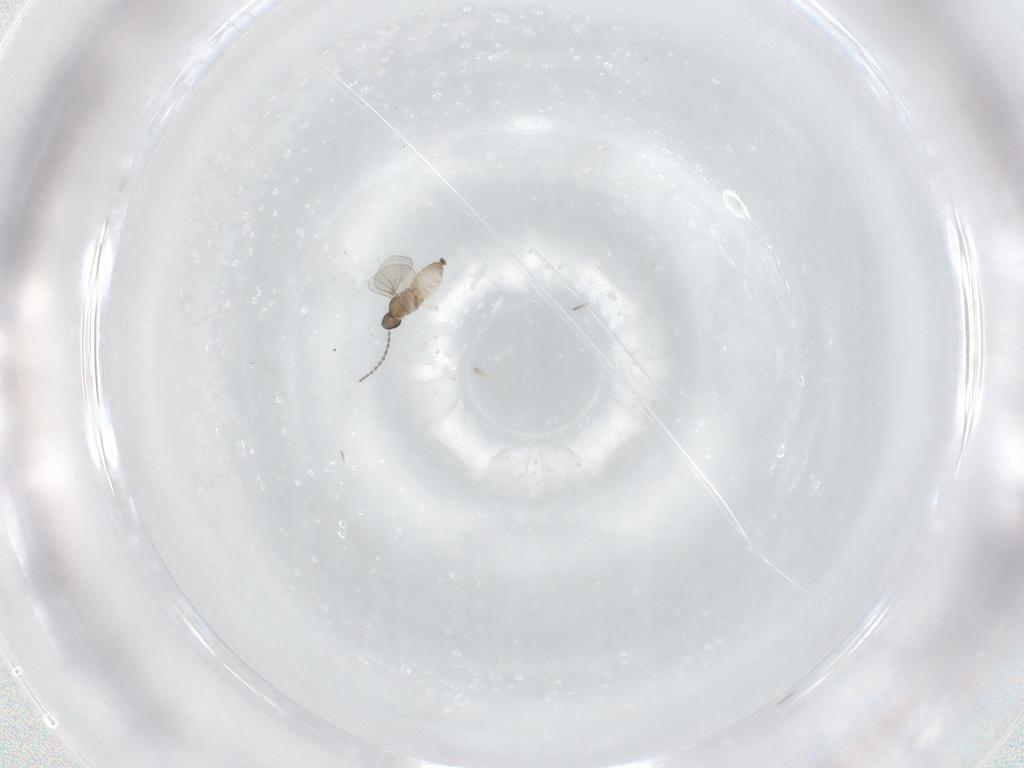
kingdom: Animalia
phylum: Arthropoda
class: Insecta
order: Diptera
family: Cecidomyiidae
